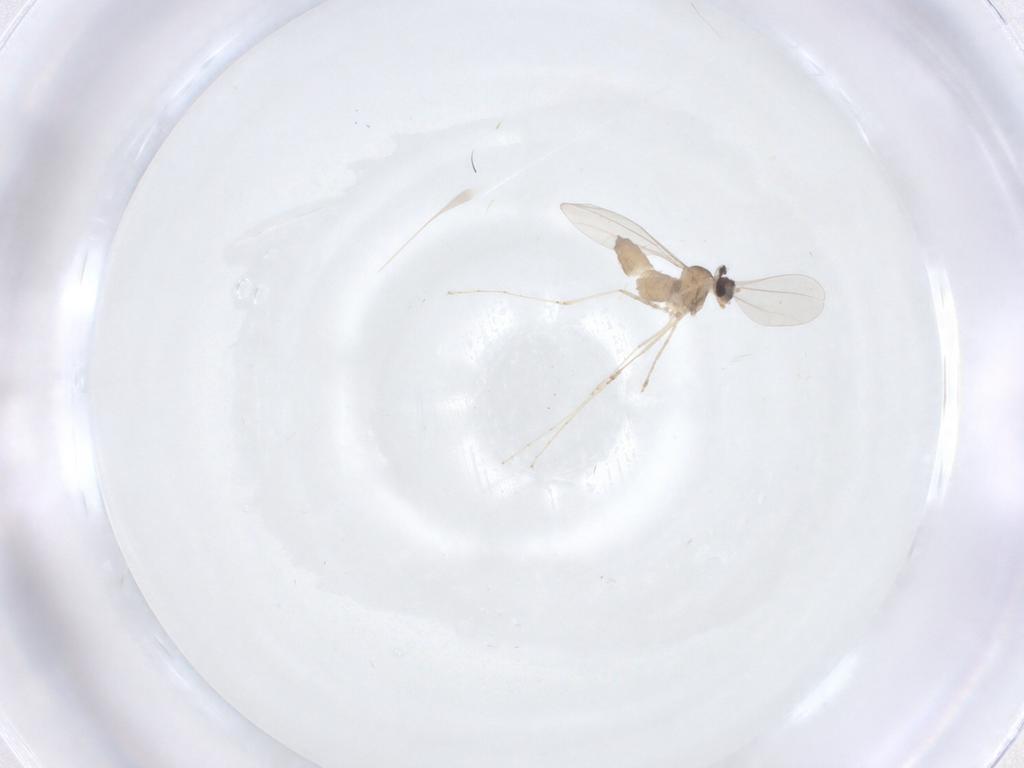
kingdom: Animalia
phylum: Arthropoda
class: Insecta
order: Diptera
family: Cecidomyiidae
